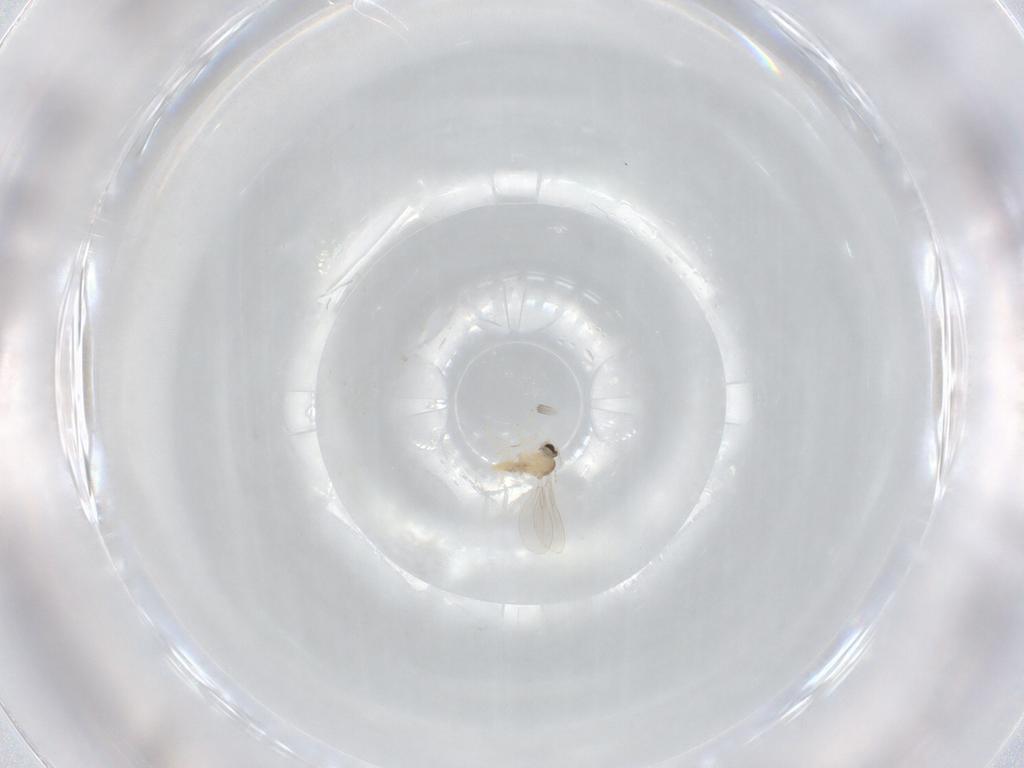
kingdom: Animalia
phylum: Arthropoda
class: Insecta
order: Diptera
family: Cecidomyiidae
